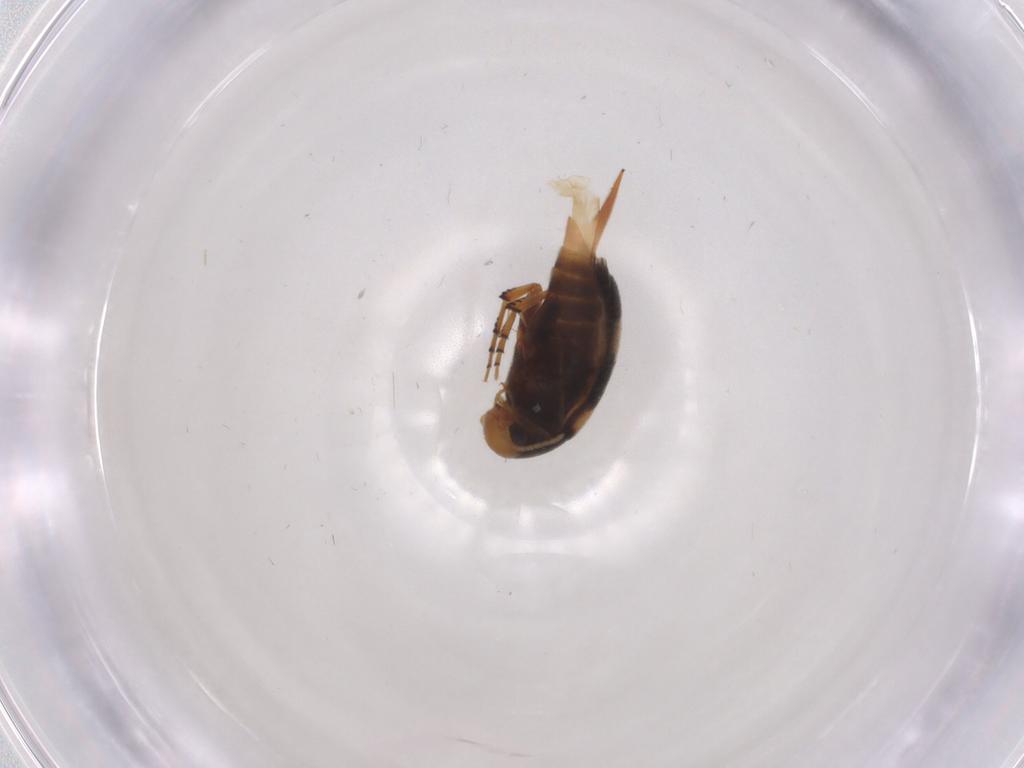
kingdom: Animalia
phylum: Arthropoda
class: Insecta
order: Coleoptera
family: Mordellidae
